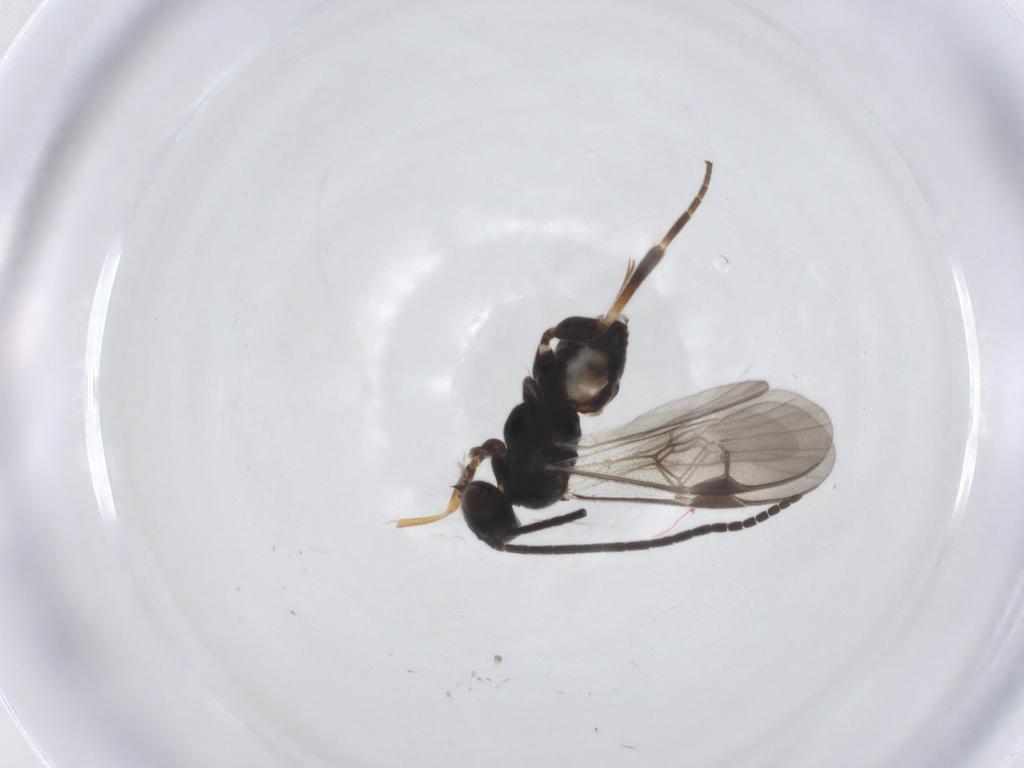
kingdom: Animalia
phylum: Arthropoda
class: Insecta
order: Hymenoptera
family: Braconidae
